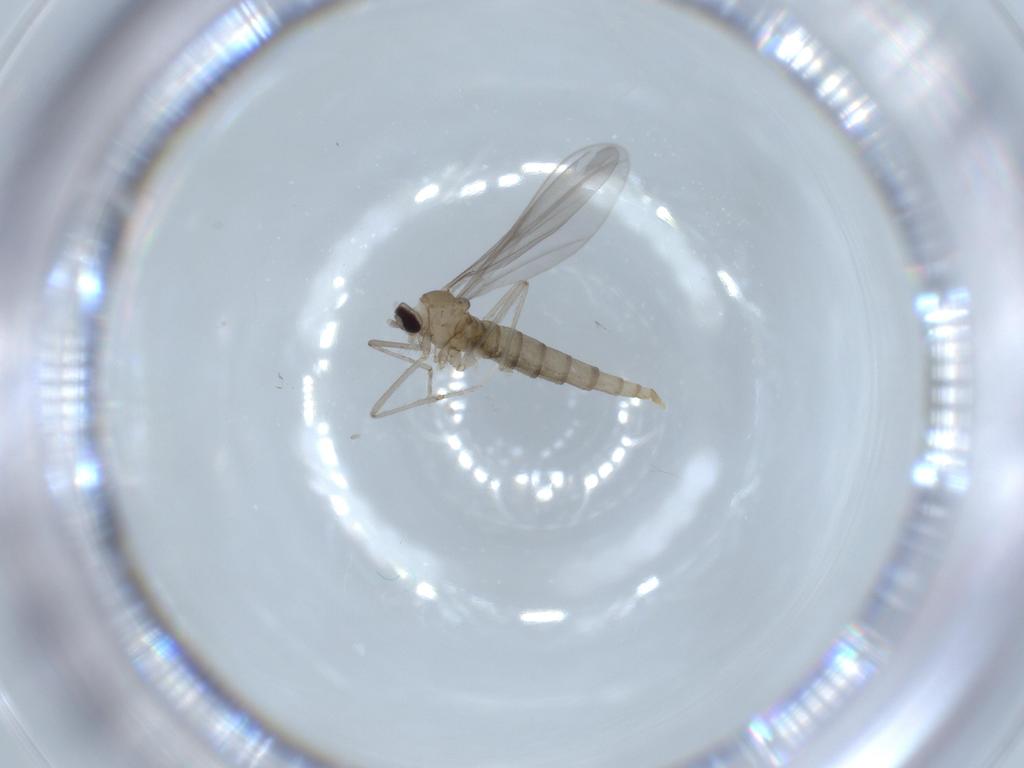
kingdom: Animalia
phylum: Arthropoda
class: Insecta
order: Diptera
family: Cecidomyiidae
